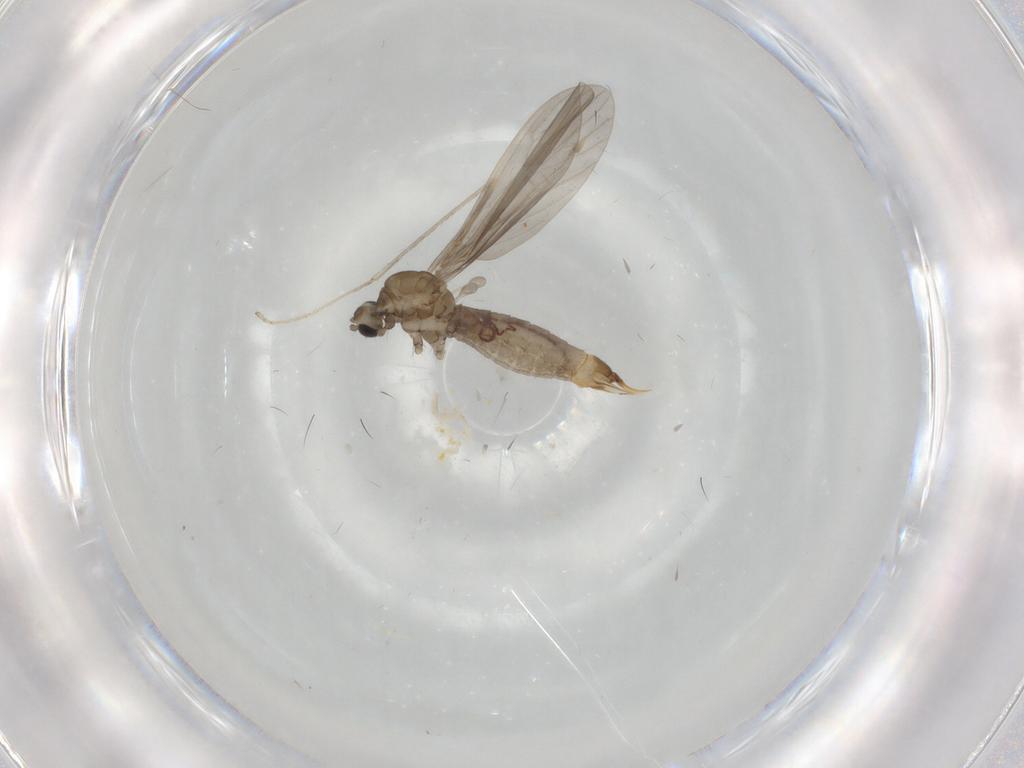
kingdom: Animalia
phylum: Arthropoda
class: Insecta
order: Diptera
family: Limoniidae
